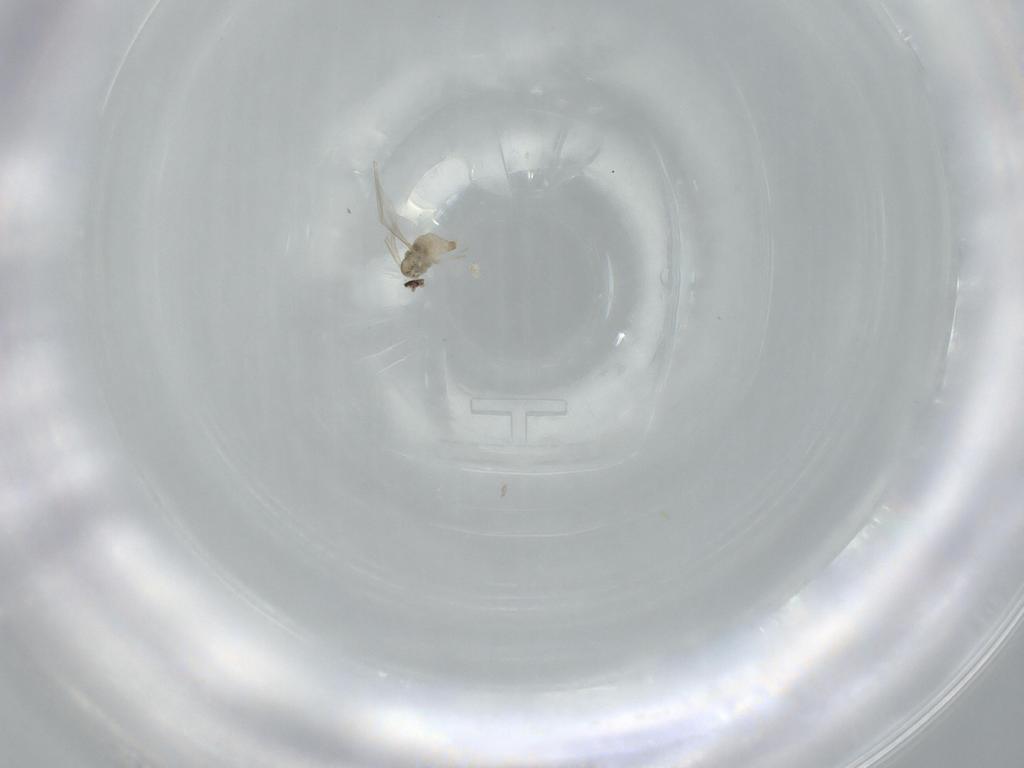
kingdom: Animalia
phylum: Arthropoda
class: Insecta
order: Diptera
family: Cecidomyiidae
